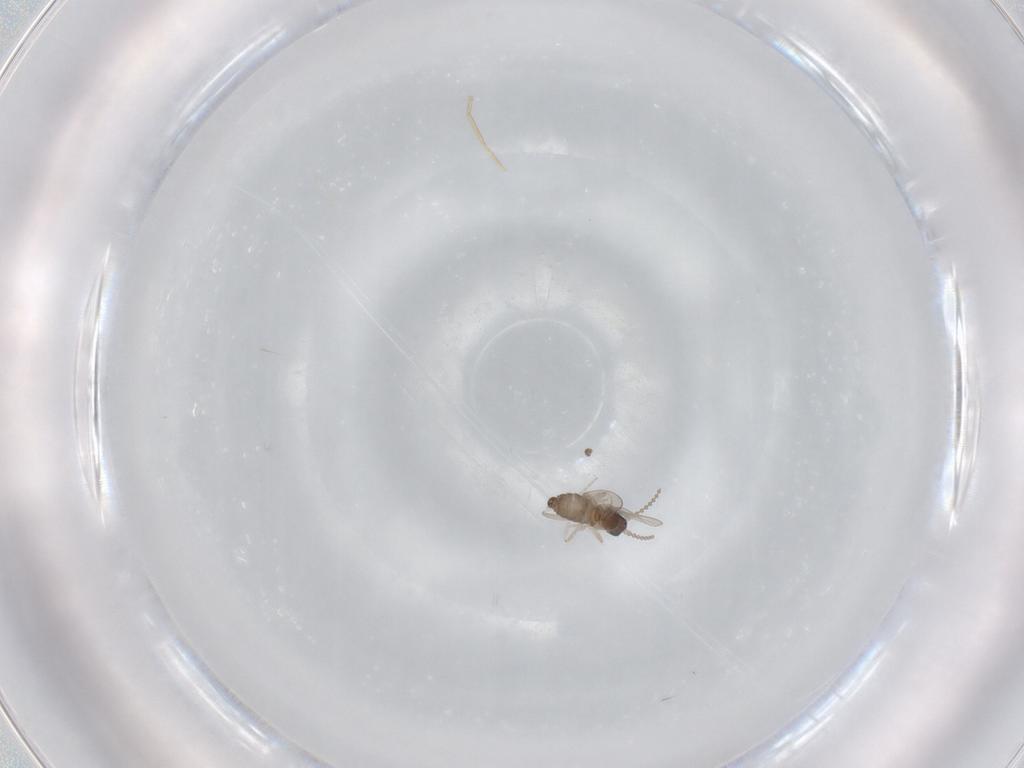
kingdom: Animalia
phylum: Arthropoda
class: Insecta
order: Diptera
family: Cecidomyiidae
